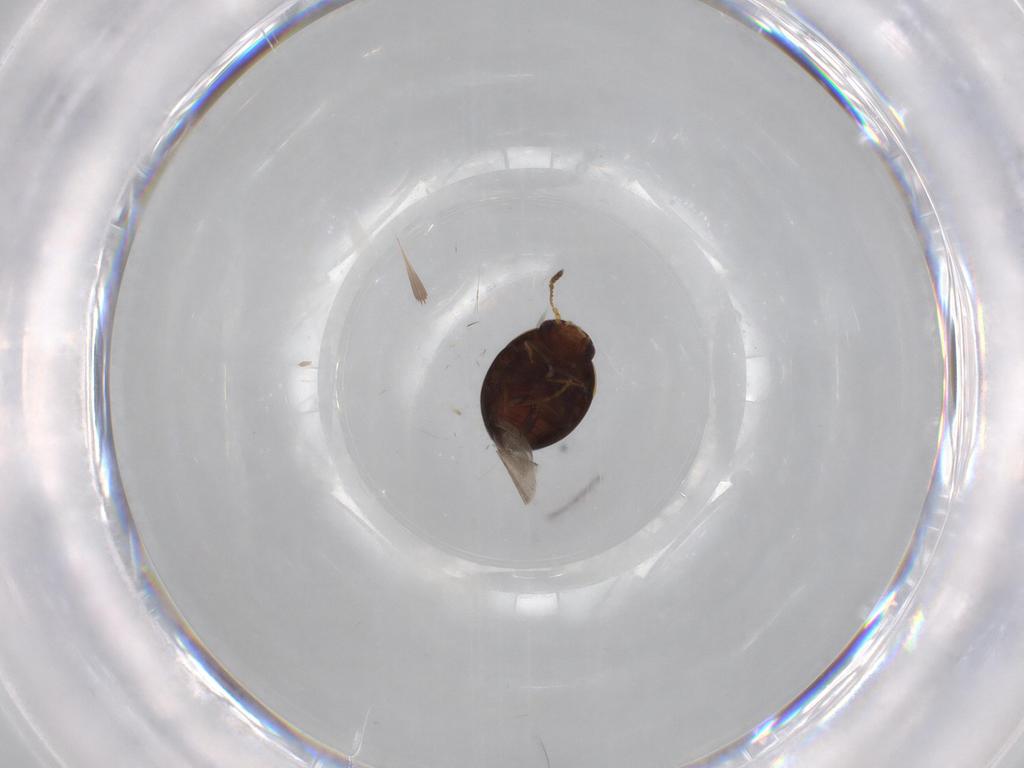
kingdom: Animalia
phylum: Arthropoda
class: Insecta
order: Coleoptera
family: Leiodidae
